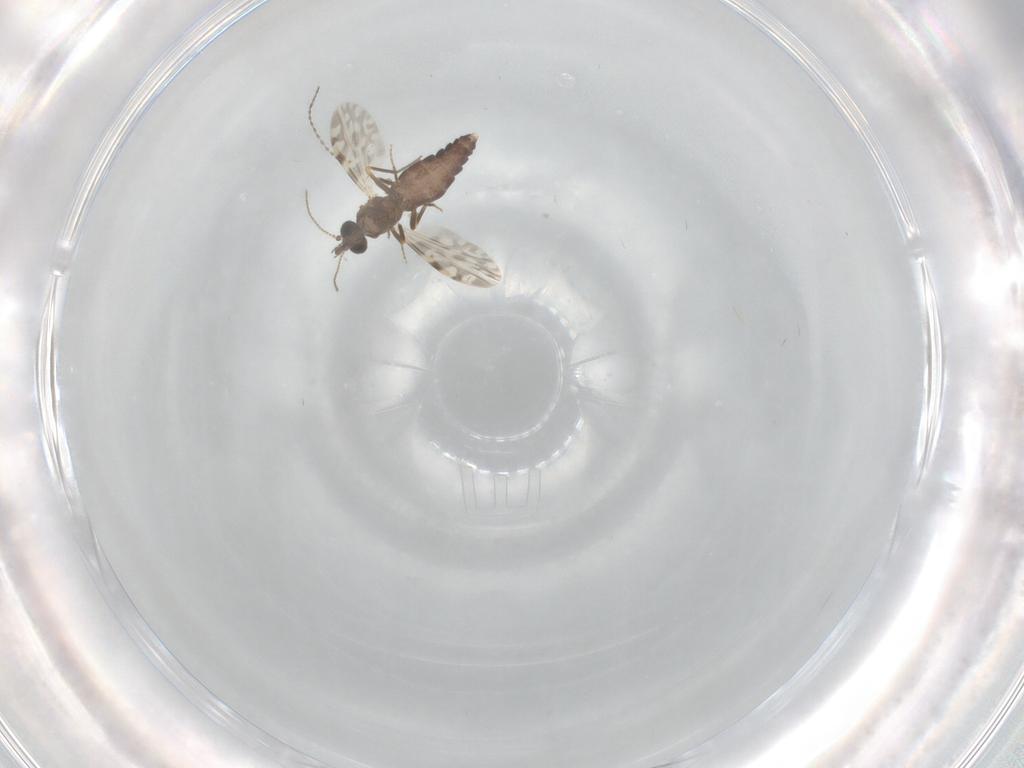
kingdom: Animalia
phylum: Arthropoda
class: Insecta
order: Diptera
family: Ceratopogonidae
